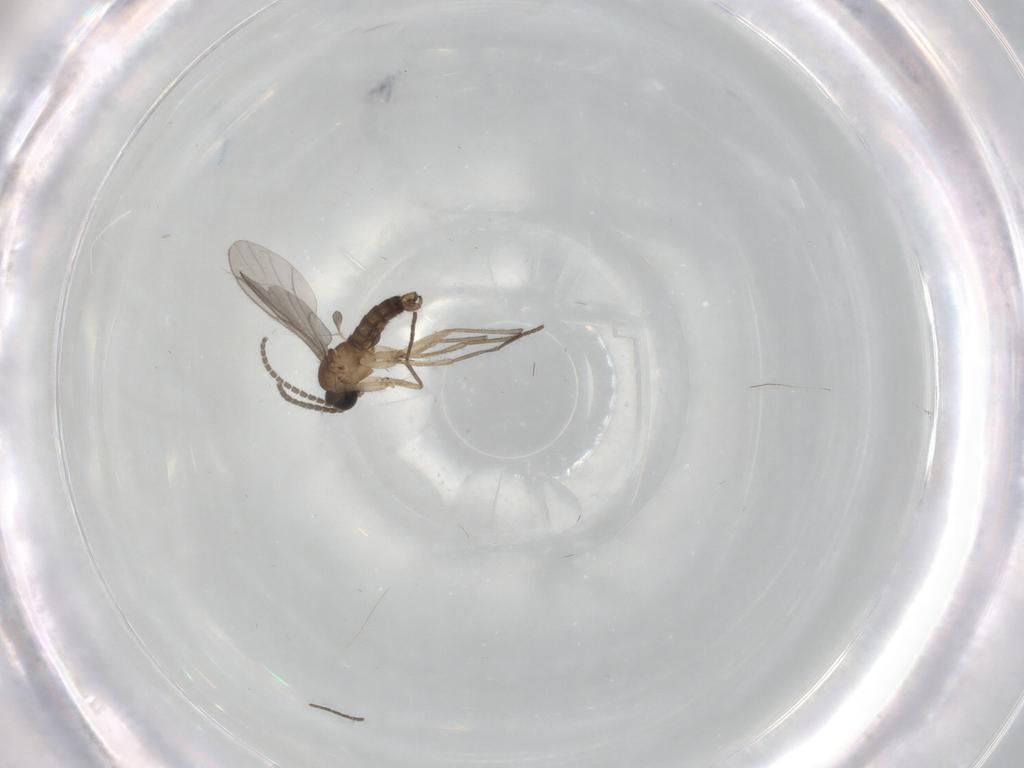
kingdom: Animalia
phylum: Arthropoda
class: Insecta
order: Diptera
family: Sciaridae
